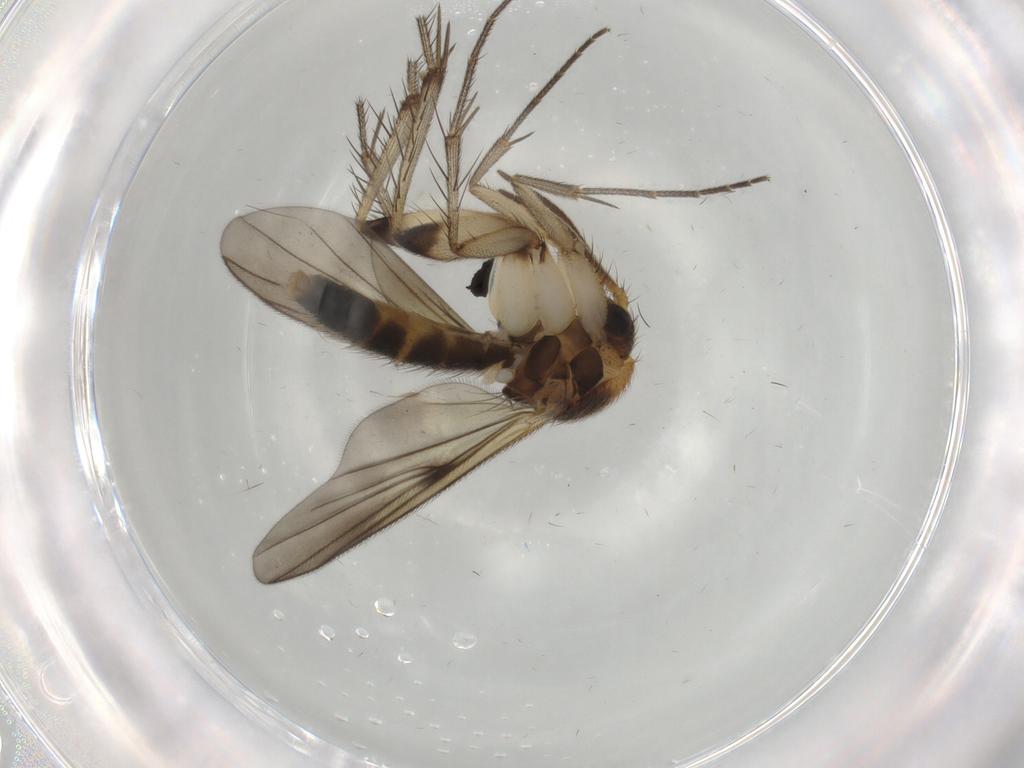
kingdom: Animalia
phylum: Arthropoda
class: Insecta
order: Diptera
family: Mycetophilidae
